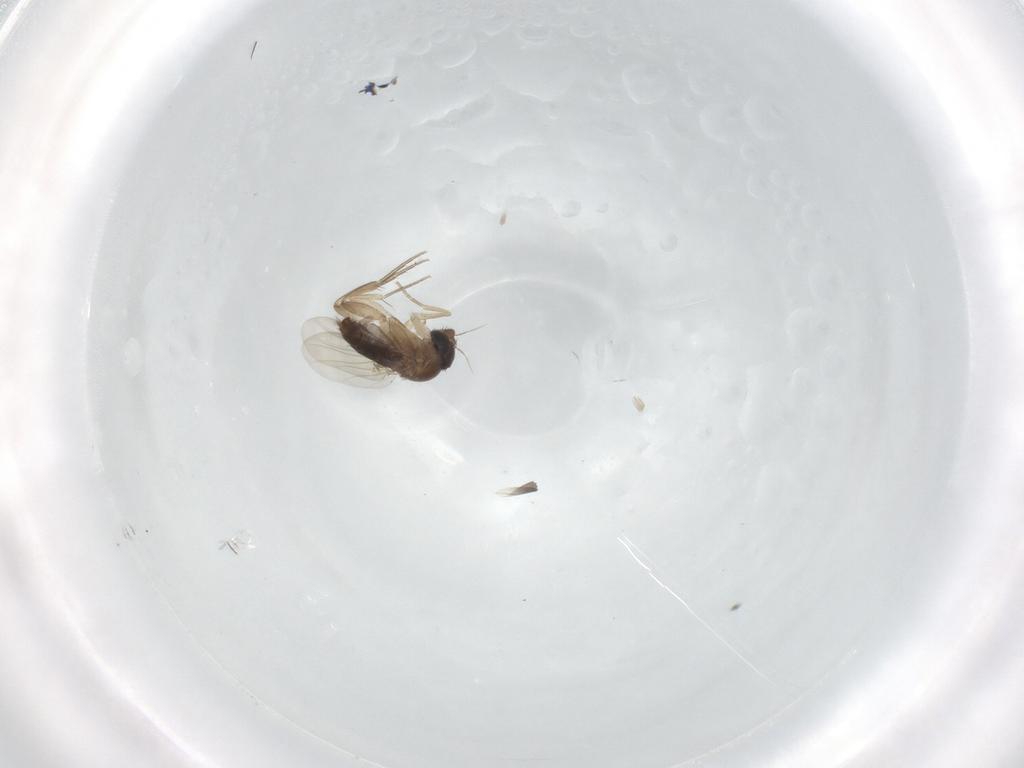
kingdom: Animalia
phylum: Arthropoda
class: Insecta
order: Diptera
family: Phoridae
